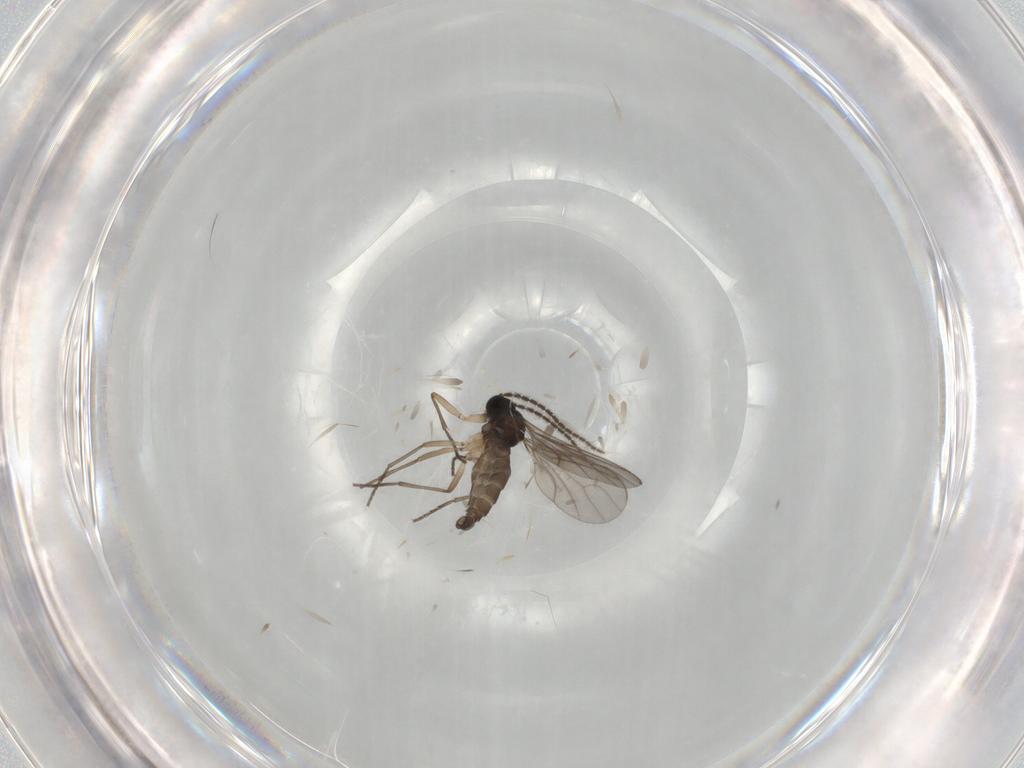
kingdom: Animalia
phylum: Arthropoda
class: Insecta
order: Diptera
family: Sciaridae
